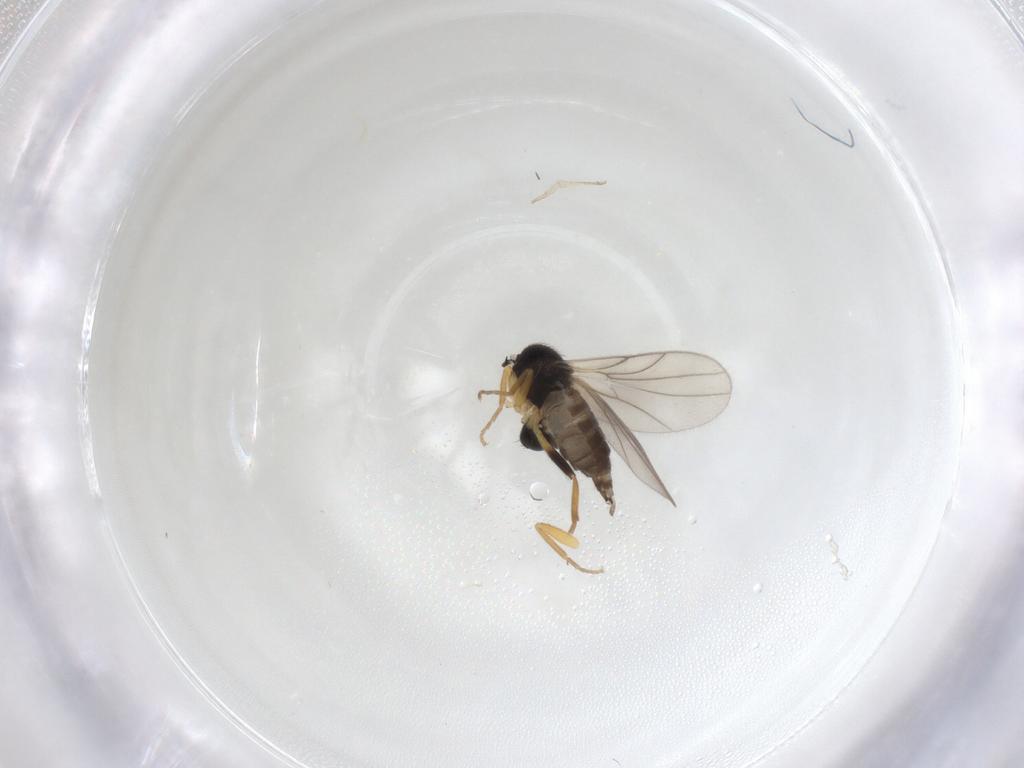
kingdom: Animalia
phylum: Arthropoda
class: Insecta
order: Diptera
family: Hybotidae
